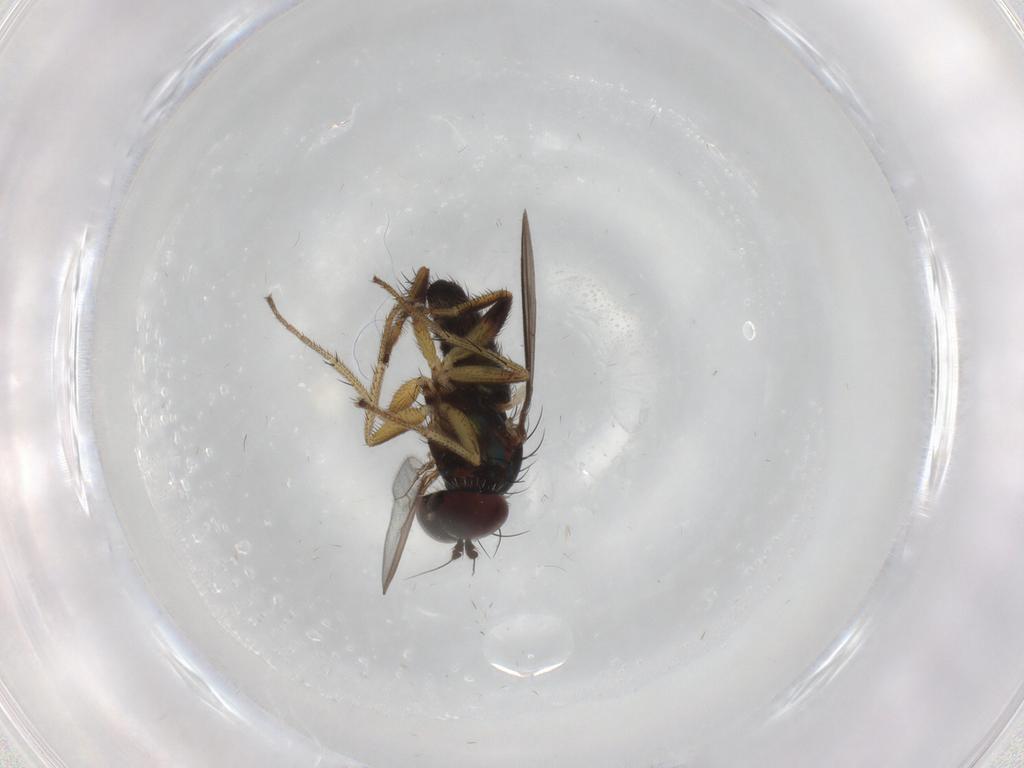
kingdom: Animalia
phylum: Arthropoda
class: Insecta
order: Diptera
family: Dolichopodidae
